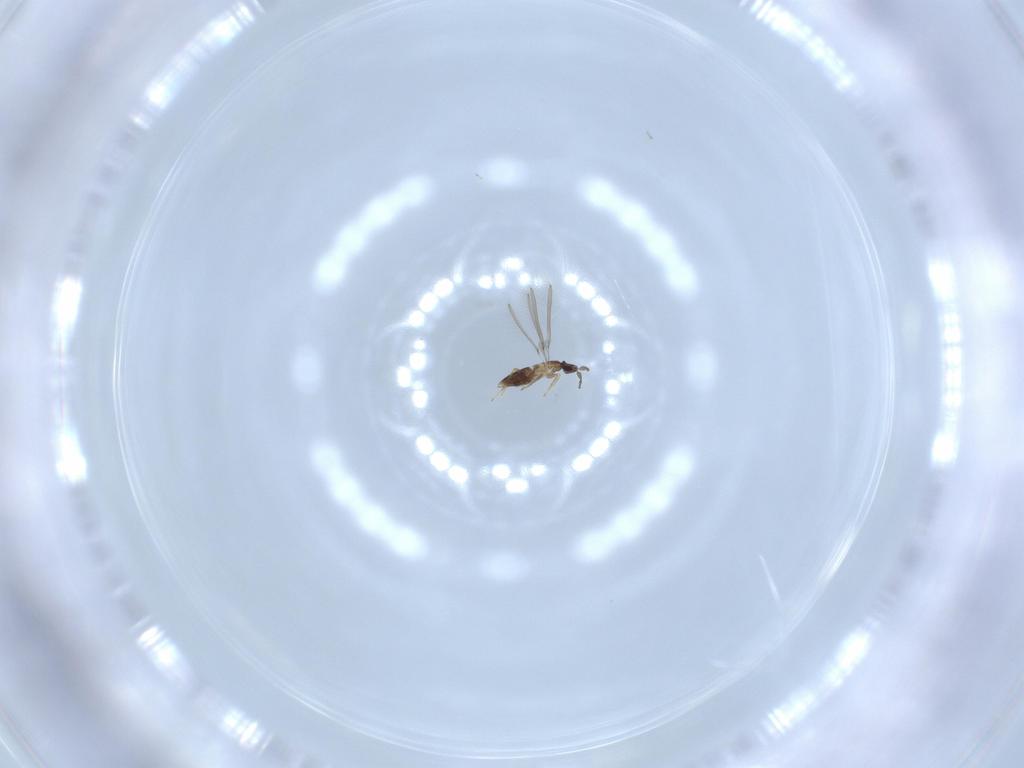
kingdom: Animalia
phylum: Arthropoda
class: Insecta
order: Hymenoptera
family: Mymaridae
